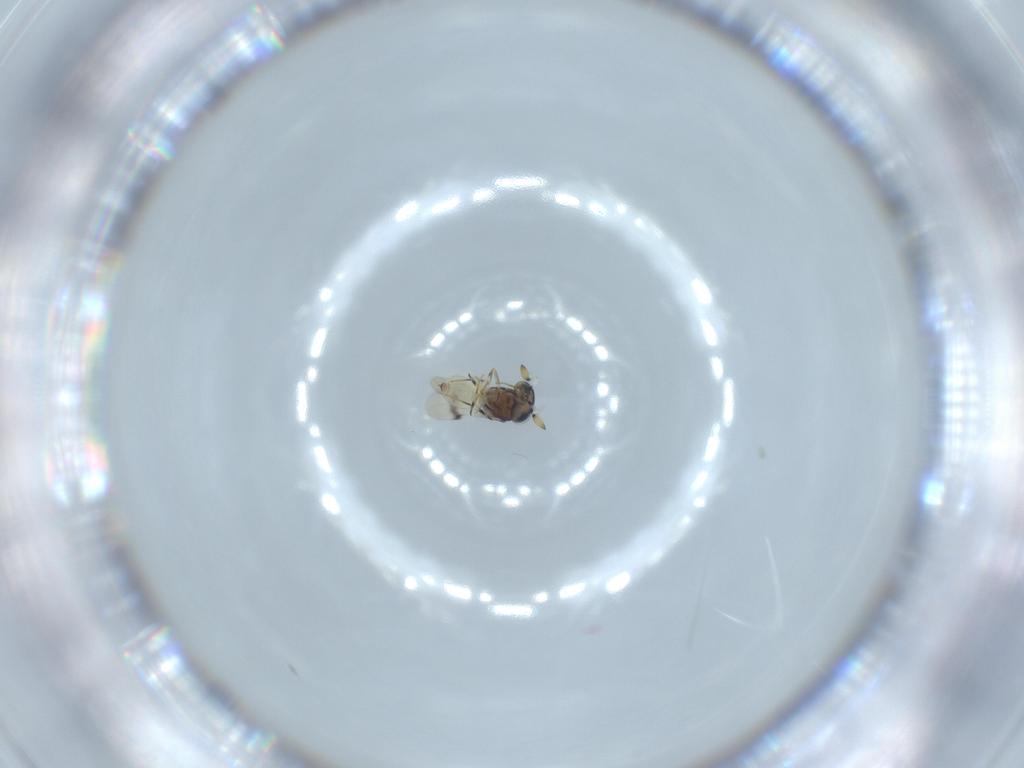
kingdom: Animalia
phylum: Arthropoda
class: Insecta
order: Hymenoptera
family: Scelionidae
